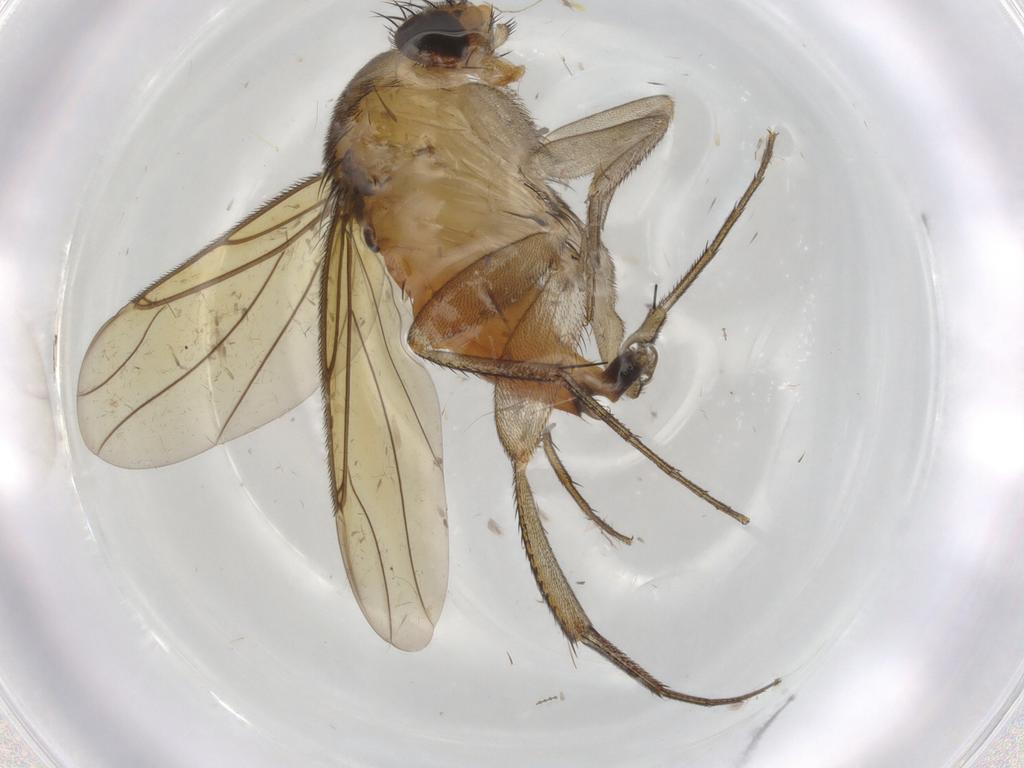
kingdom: Animalia
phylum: Arthropoda
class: Insecta
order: Diptera
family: Phoridae
